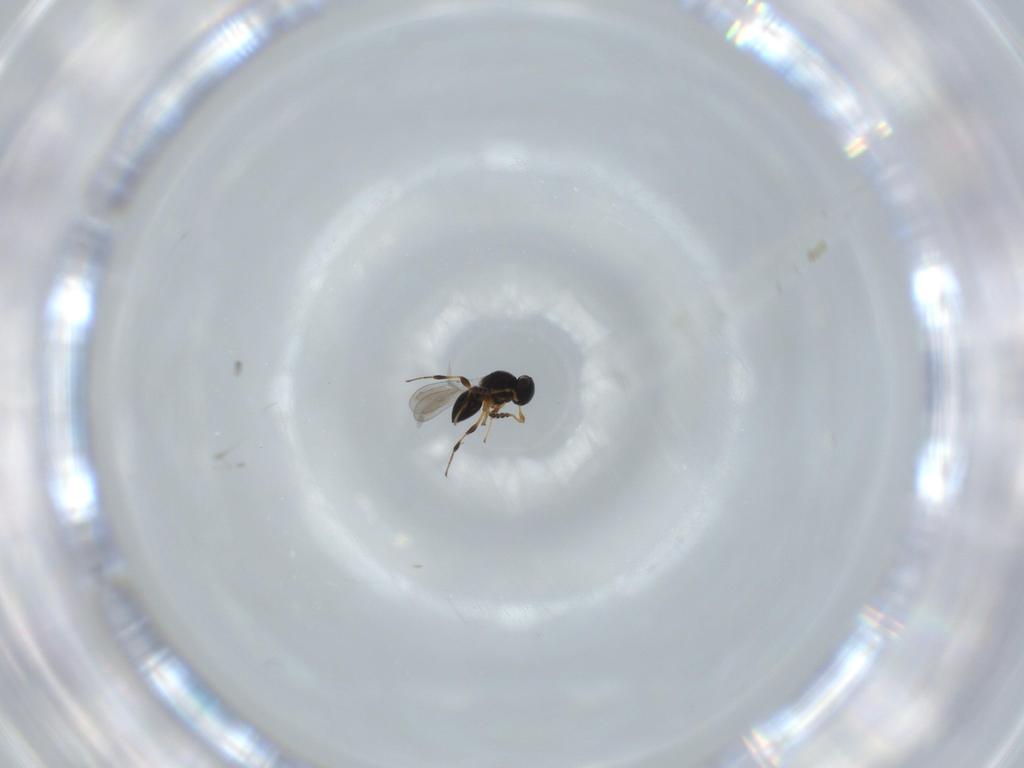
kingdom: Animalia
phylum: Arthropoda
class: Insecta
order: Hymenoptera
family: Platygastridae
